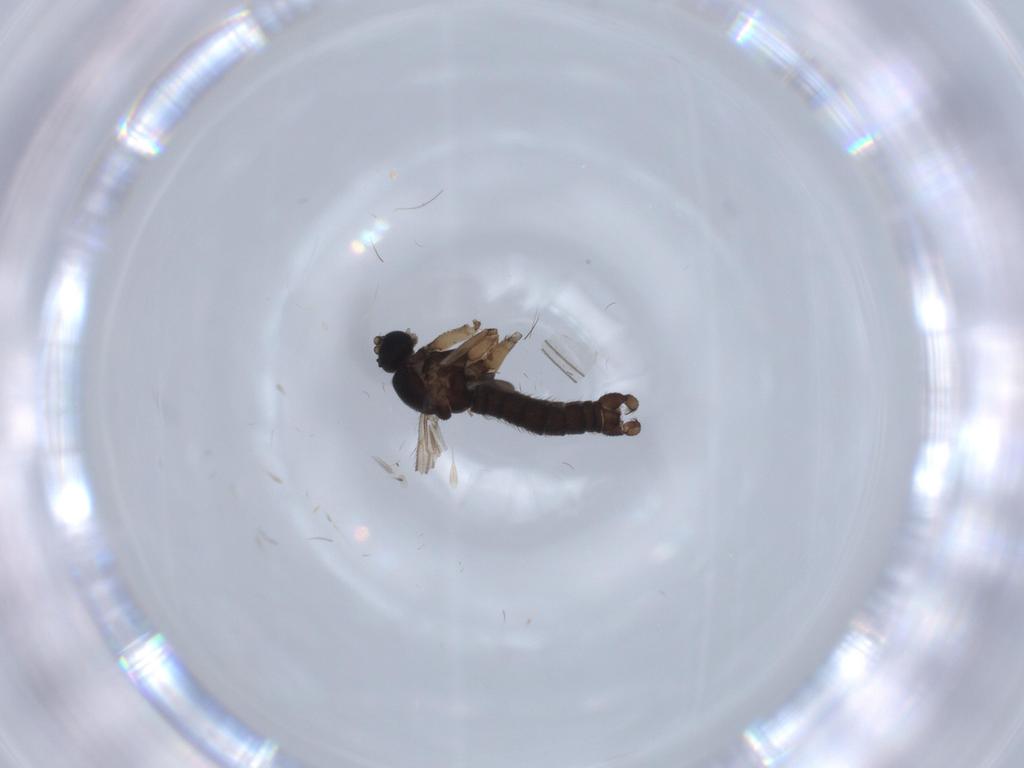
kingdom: Animalia
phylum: Arthropoda
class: Insecta
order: Diptera
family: Sciaridae
